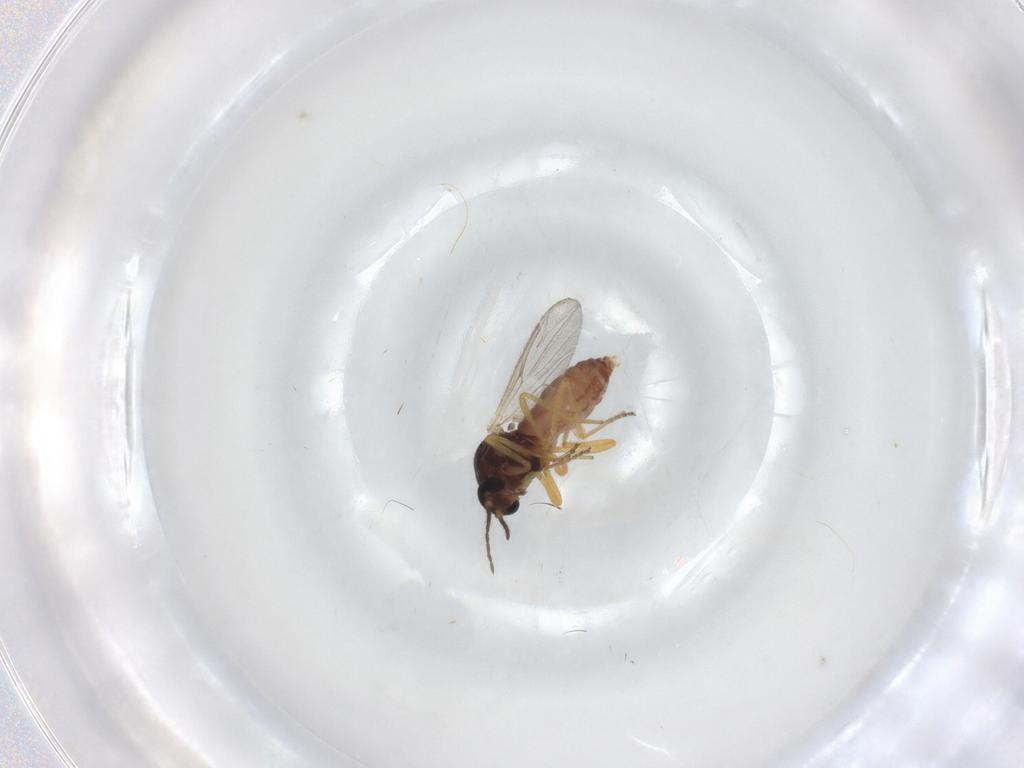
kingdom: Animalia
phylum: Arthropoda
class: Insecta
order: Diptera
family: Ceratopogonidae
